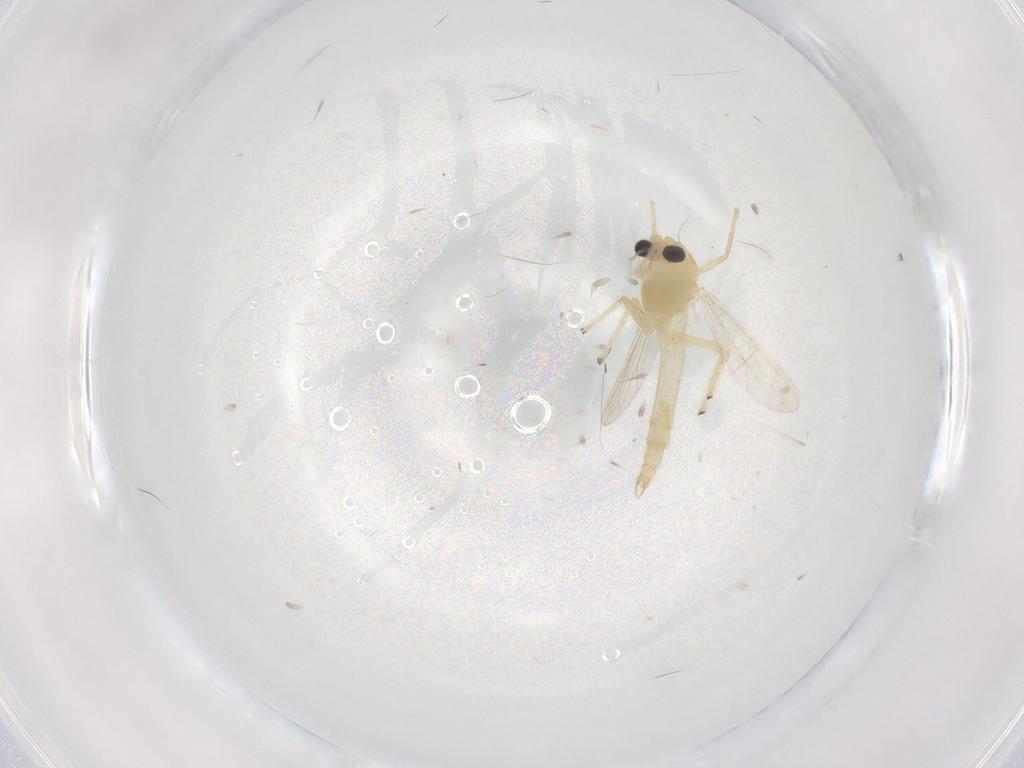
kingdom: Animalia
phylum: Arthropoda
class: Insecta
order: Diptera
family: Chironomidae
